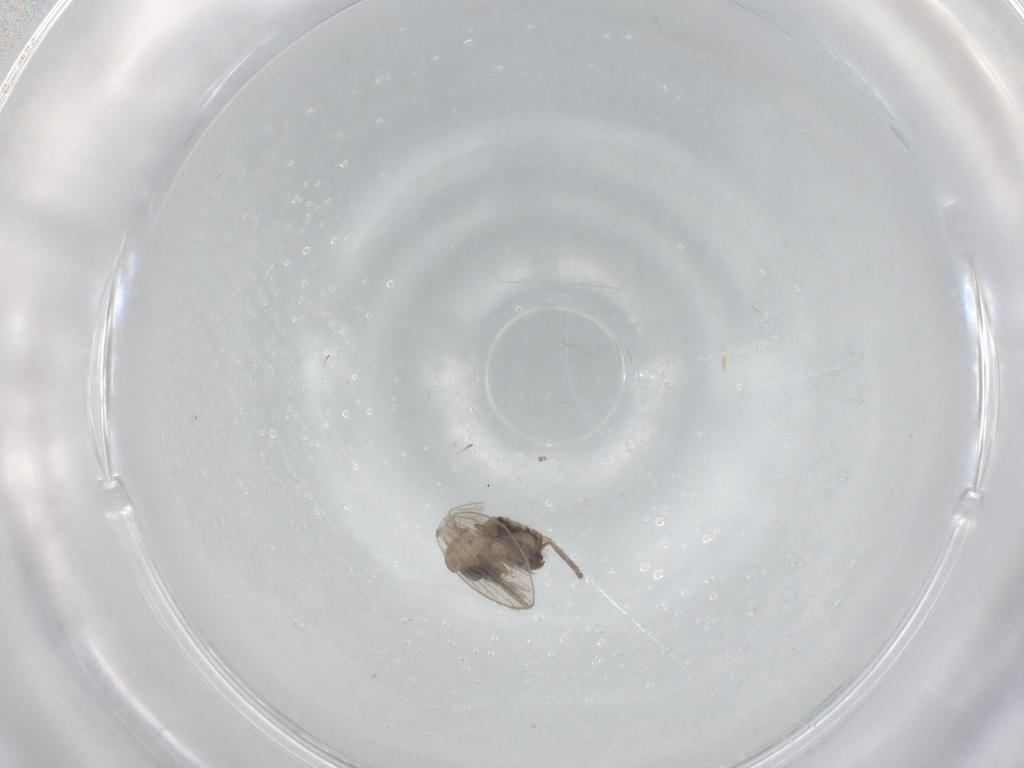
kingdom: Animalia
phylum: Arthropoda
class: Insecta
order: Diptera
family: Psychodidae
